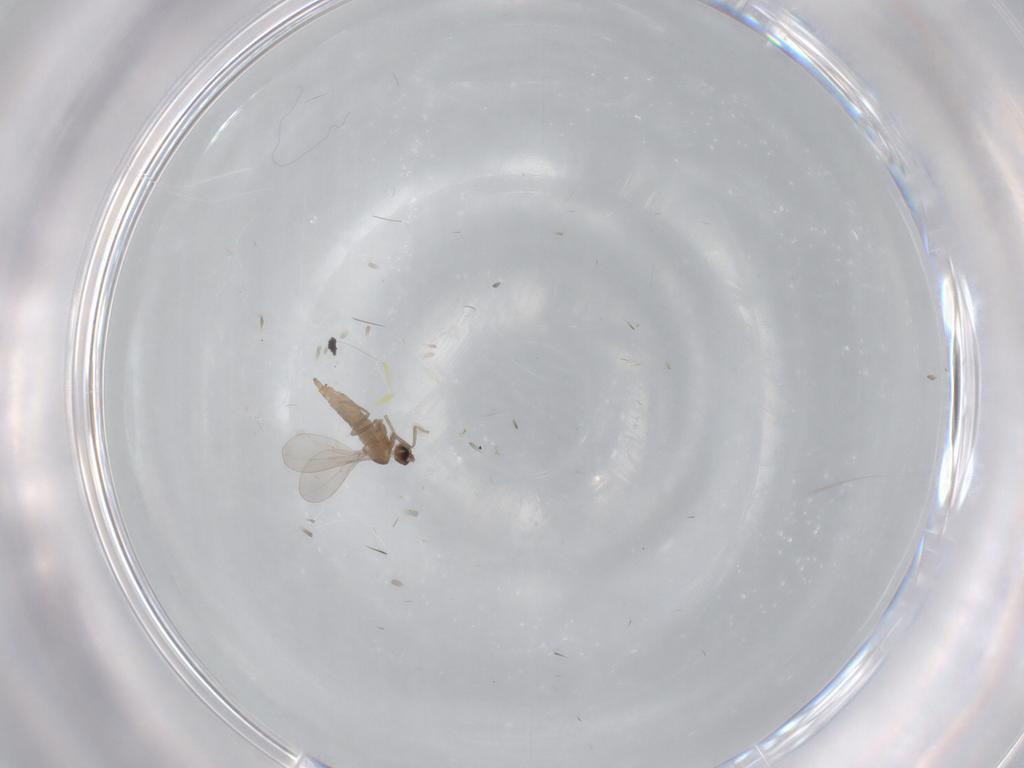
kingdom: Animalia
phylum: Arthropoda
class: Insecta
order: Diptera
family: Cecidomyiidae
